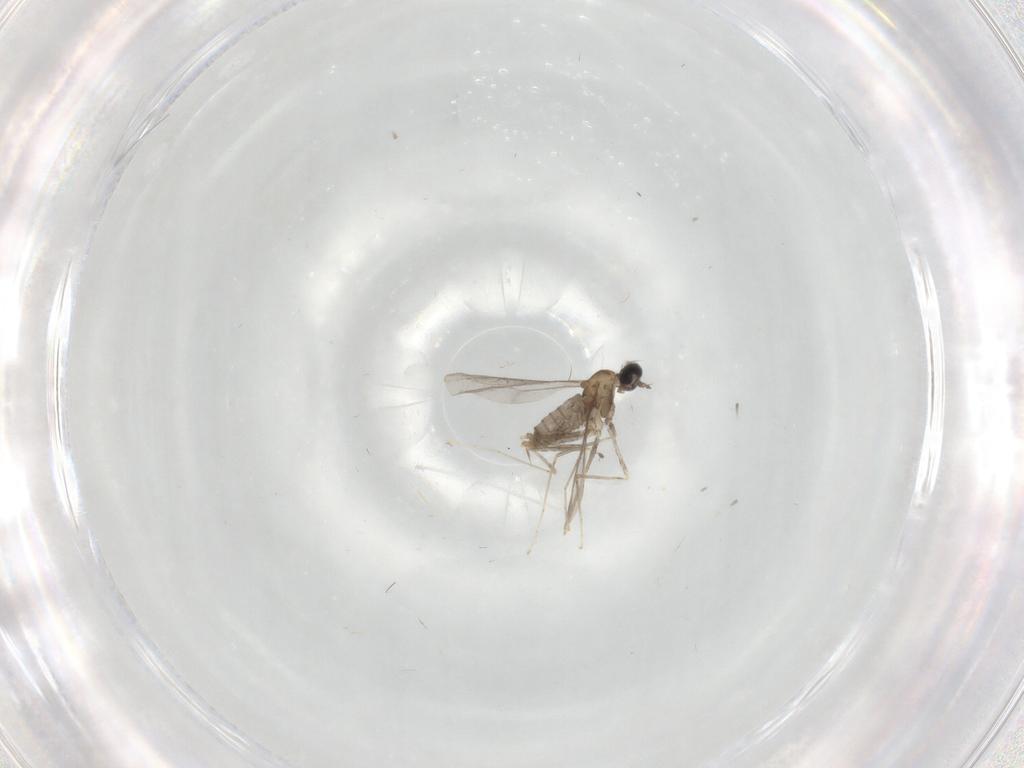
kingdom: Animalia
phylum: Arthropoda
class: Insecta
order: Diptera
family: Cecidomyiidae
